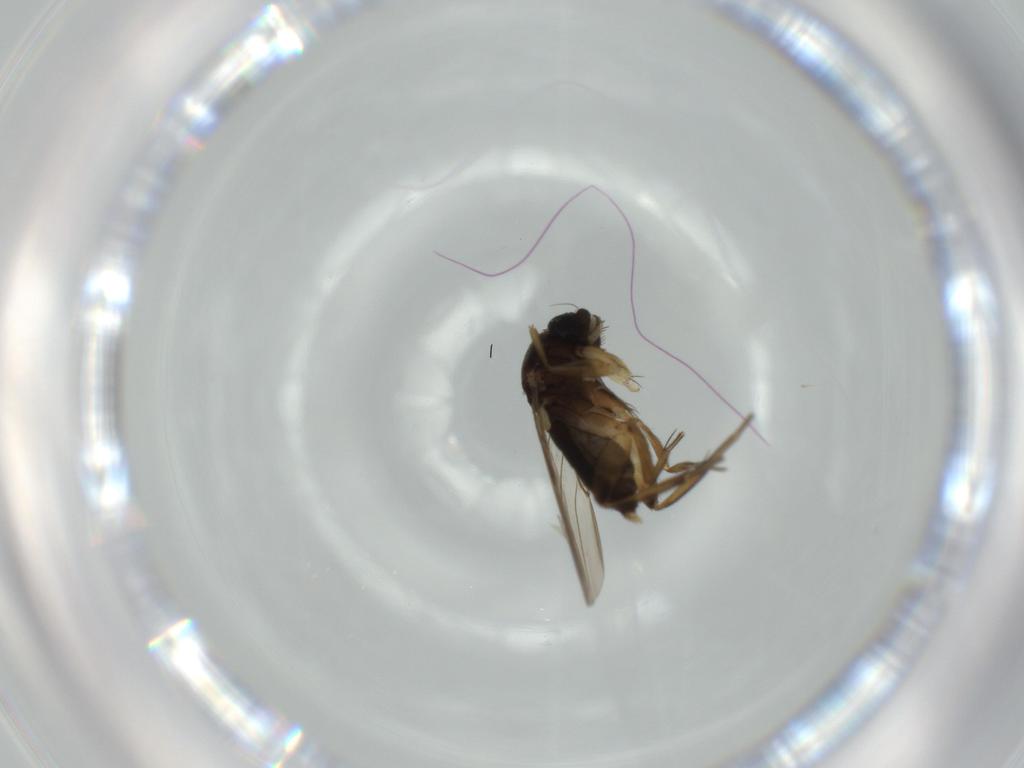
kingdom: Animalia
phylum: Arthropoda
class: Insecta
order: Diptera
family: Phoridae
